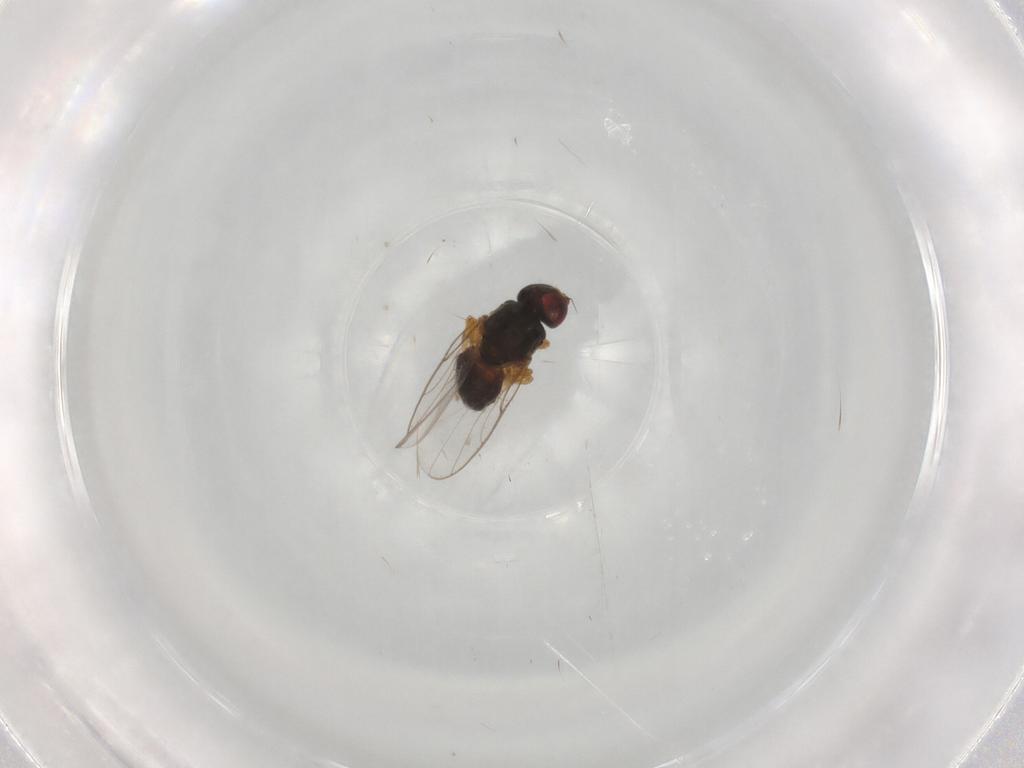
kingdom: Animalia
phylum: Arthropoda
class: Insecta
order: Diptera
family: Chloropidae
